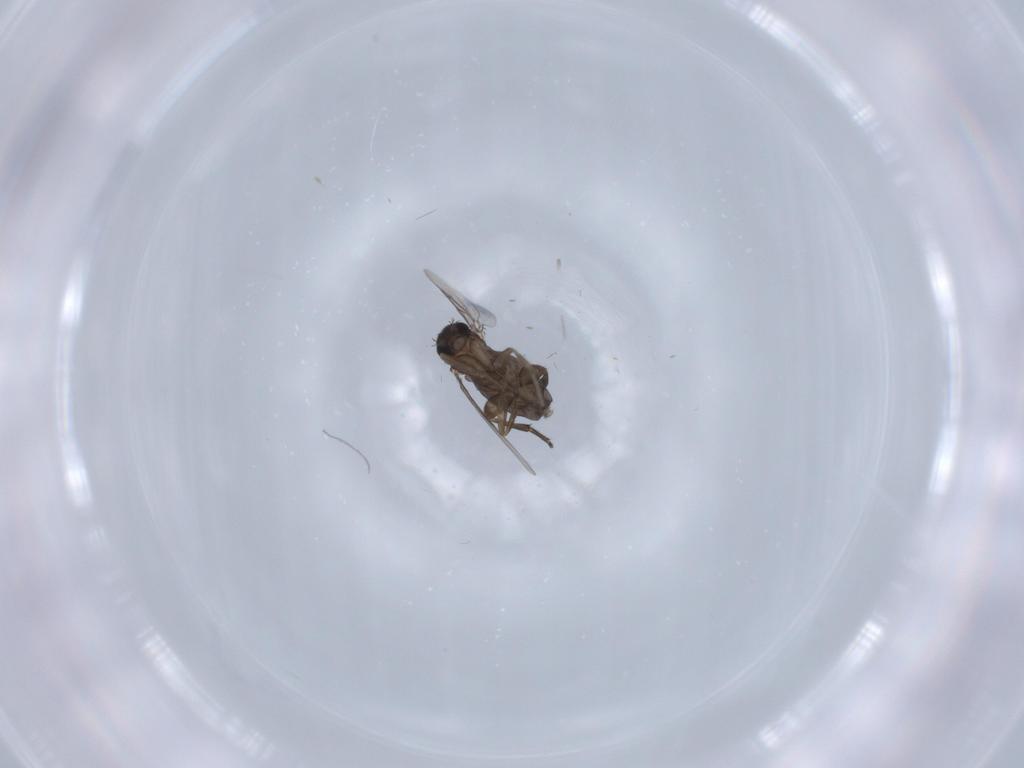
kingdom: Animalia
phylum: Arthropoda
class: Insecta
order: Diptera
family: Phoridae
